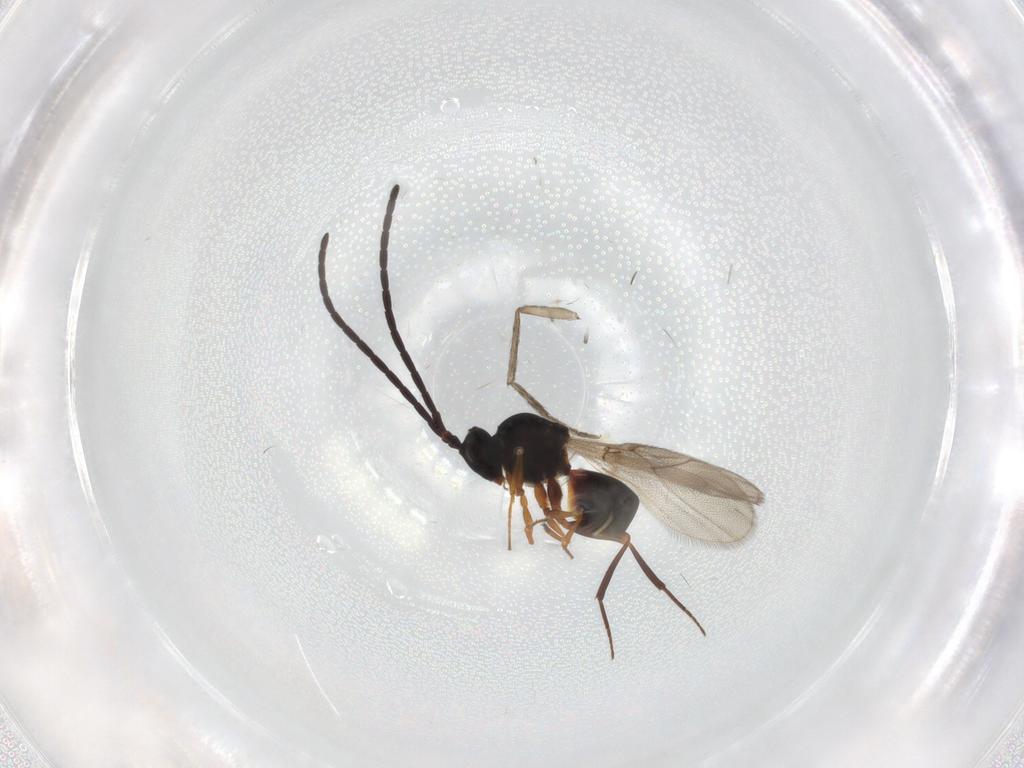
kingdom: Animalia
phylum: Arthropoda
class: Insecta
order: Hymenoptera
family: Figitidae
